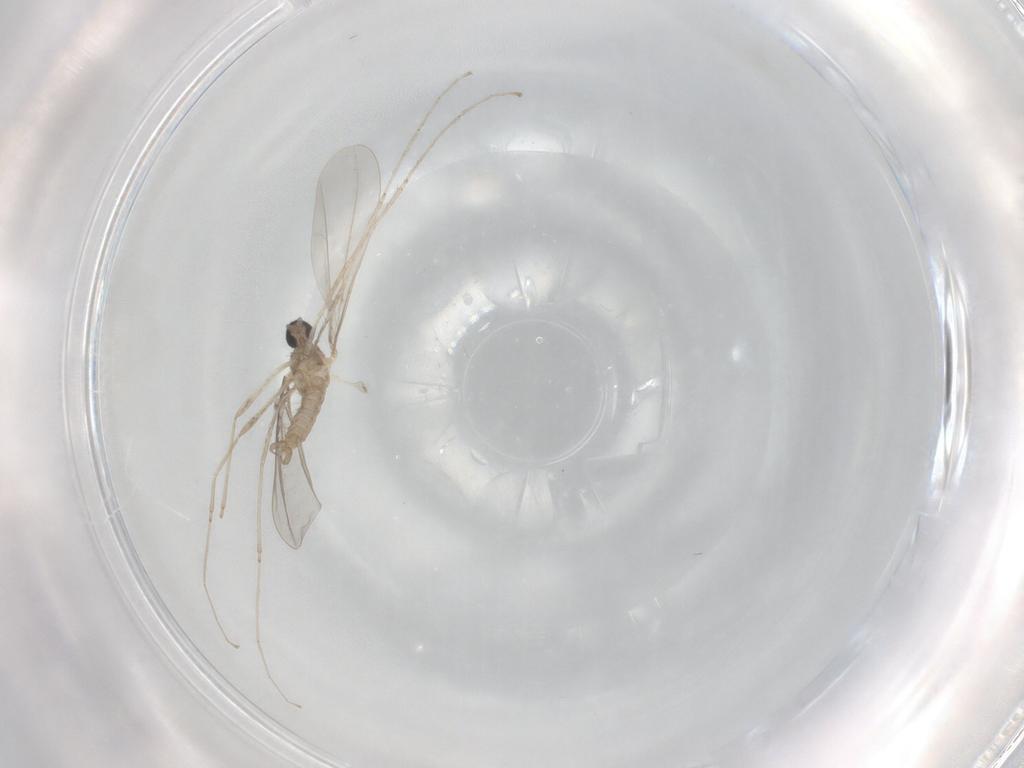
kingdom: Animalia
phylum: Arthropoda
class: Insecta
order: Diptera
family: Cecidomyiidae
